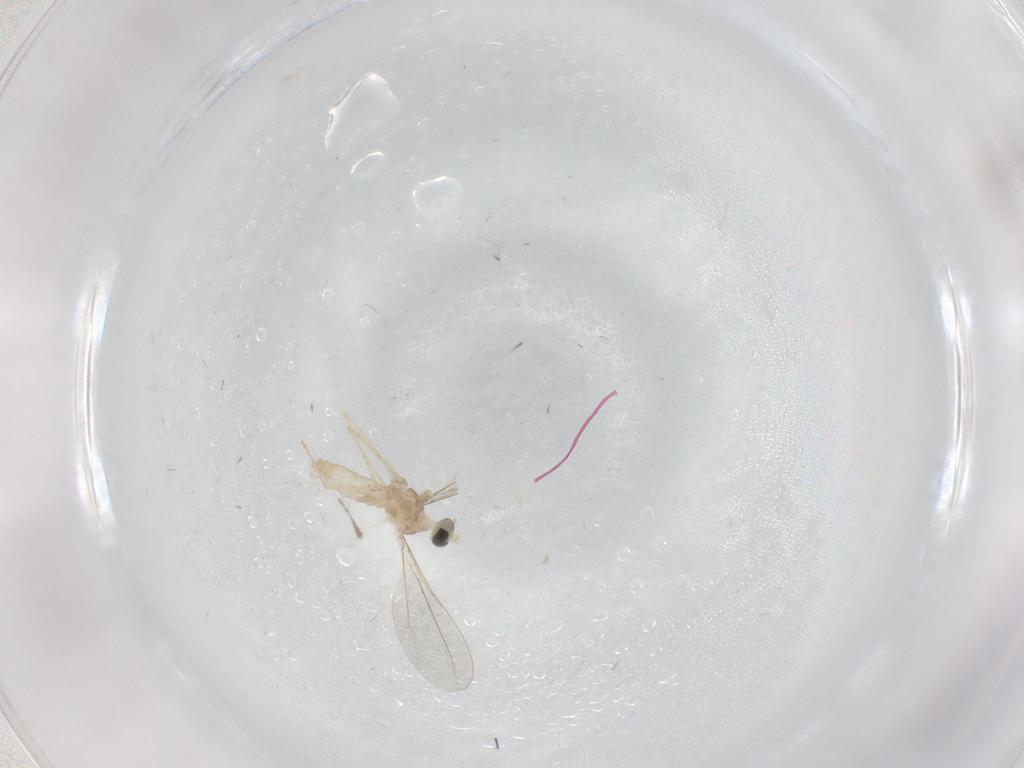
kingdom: Animalia
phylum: Arthropoda
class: Insecta
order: Diptera
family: Cecidomyiidae
